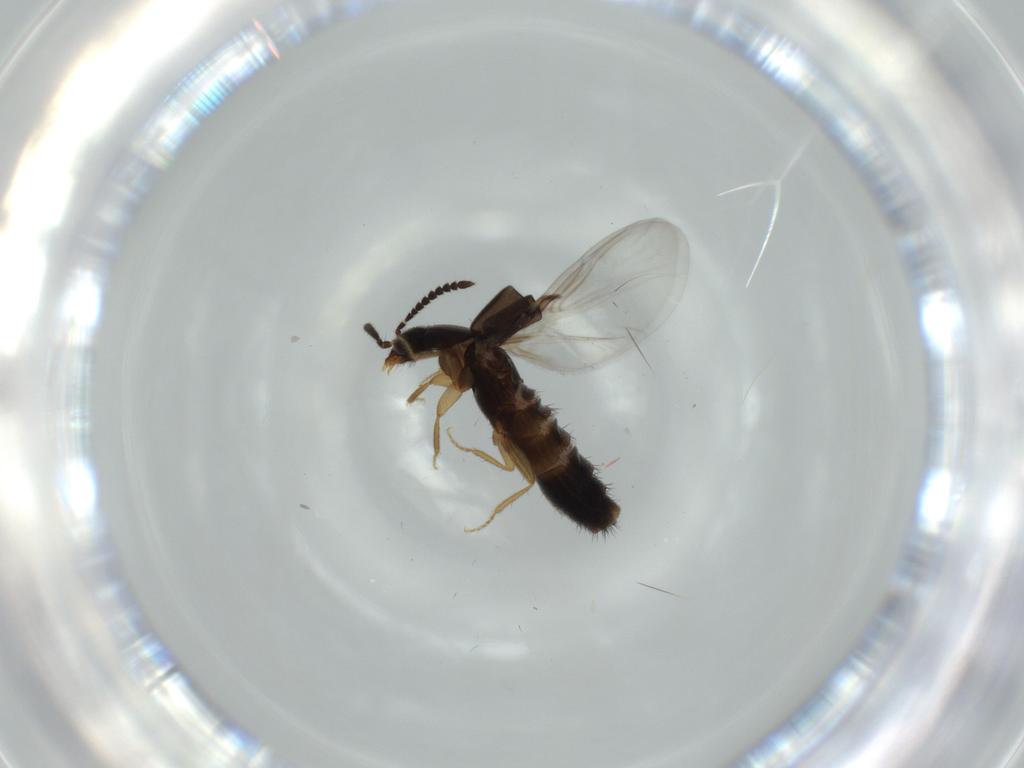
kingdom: Animalia
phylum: Arthropoda
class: Insecta
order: Coleoptera
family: Staphylinidae
